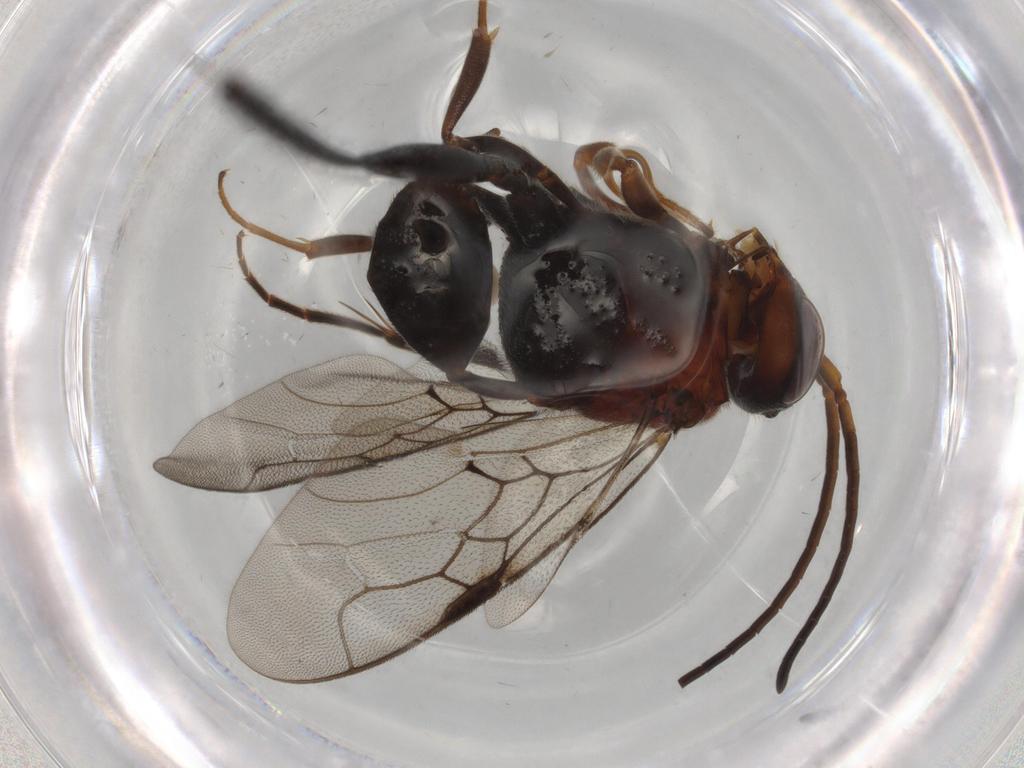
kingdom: Animalia
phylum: Arthropoda
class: Insecta
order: Hymenoptera
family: Evaniidae
